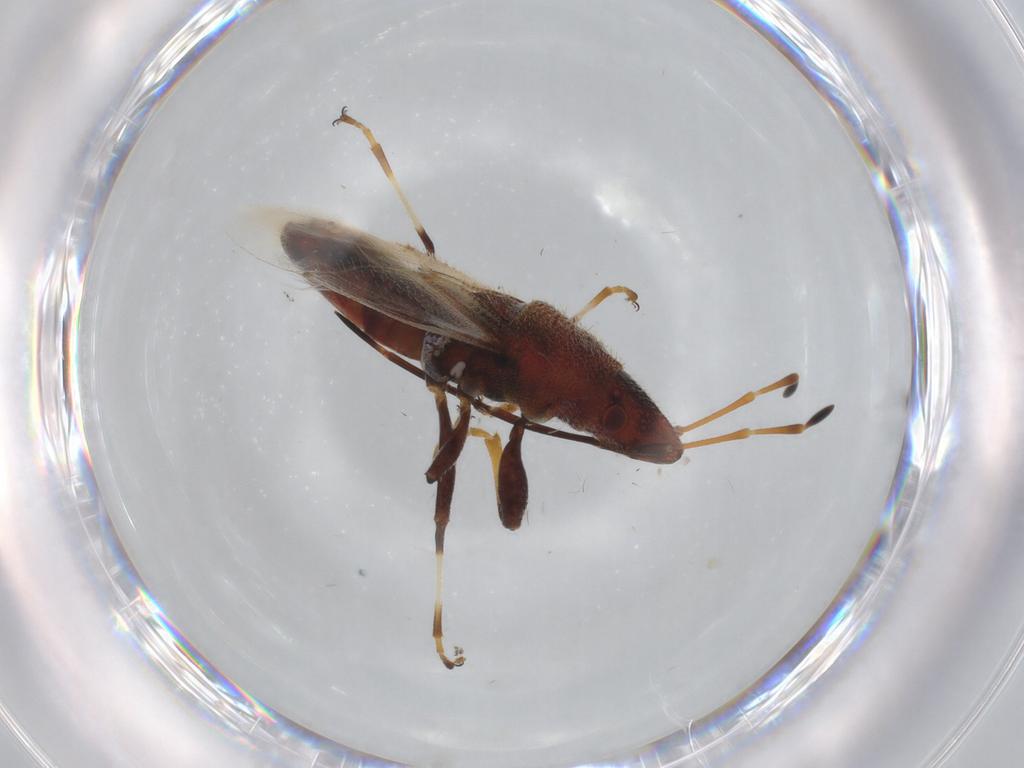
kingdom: Animalia
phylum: Arthropoda
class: Insecta
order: Hemiptera
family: Oxycarenidae
